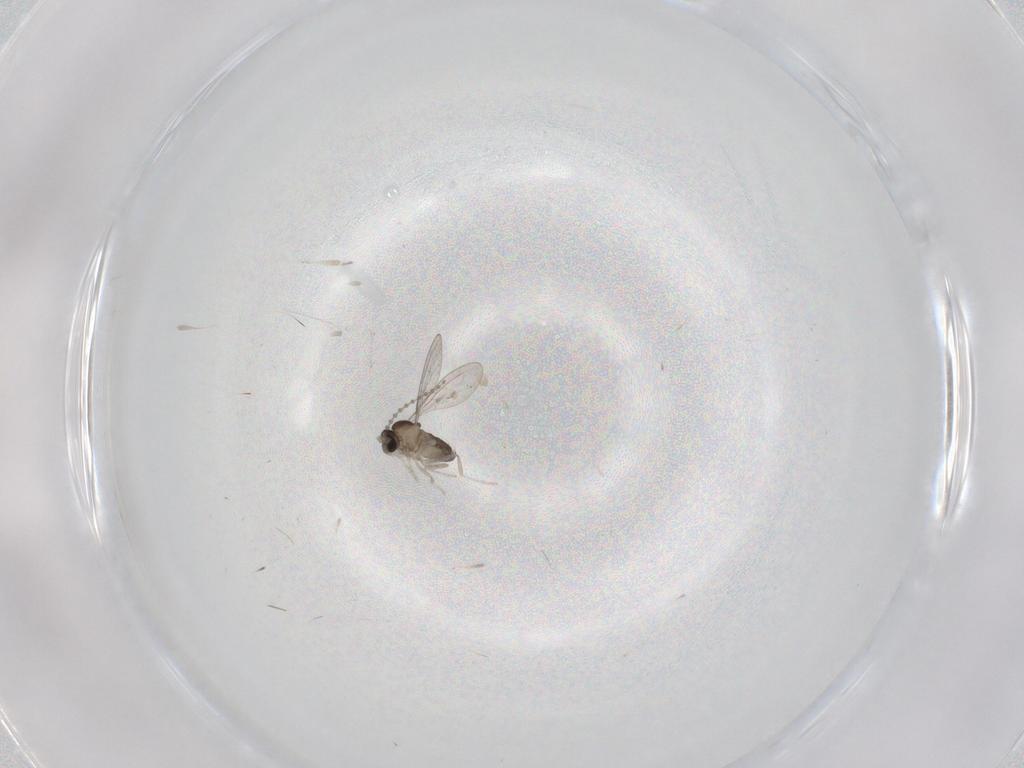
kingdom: Animalia
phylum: Arthropoda
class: Insecta
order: Diptera
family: Cecidomyiidae
